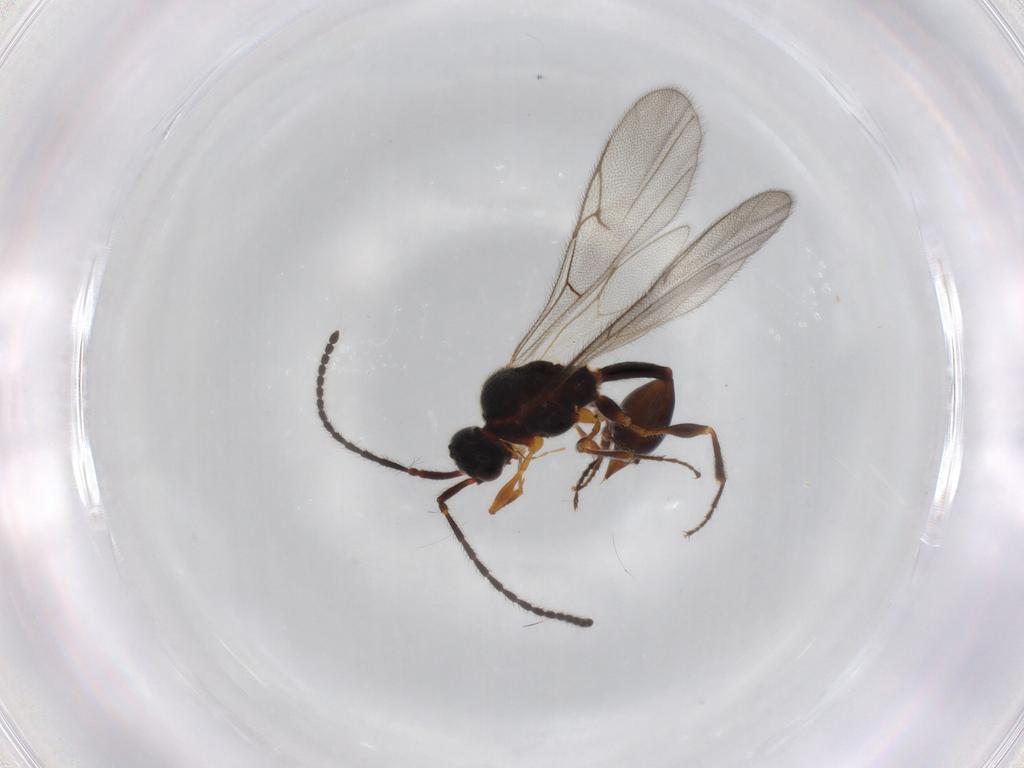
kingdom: Animalia
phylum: Arthropoda
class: Insecta
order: Hymenoptera
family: Diapriidae
